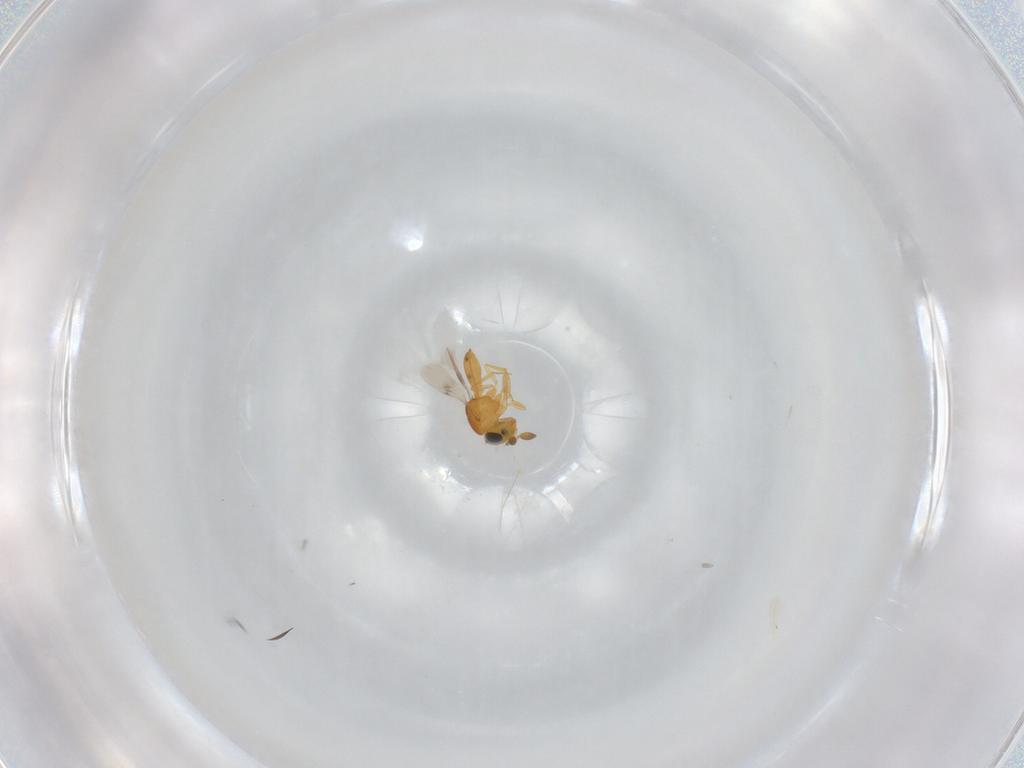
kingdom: Animalia
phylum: Arthropoda
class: Insecta
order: Hymenoptera
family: Scelionidae
